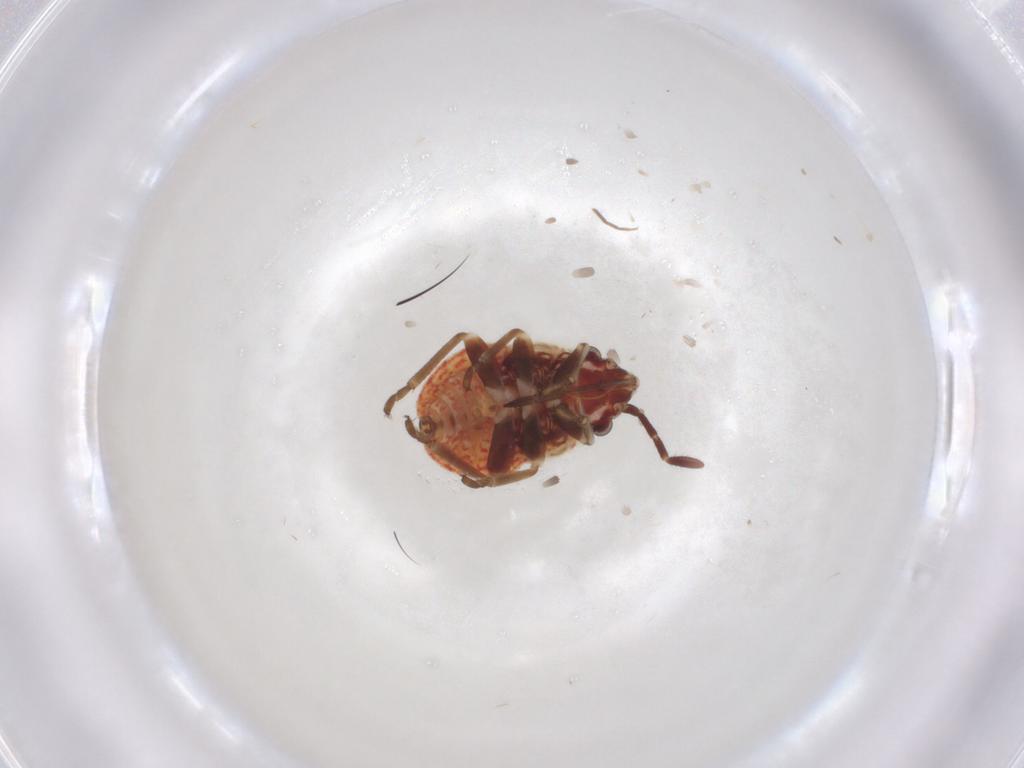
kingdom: Animalia
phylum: Arthropoda
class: Insecta
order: Hemiptera
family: Lygaeidae
